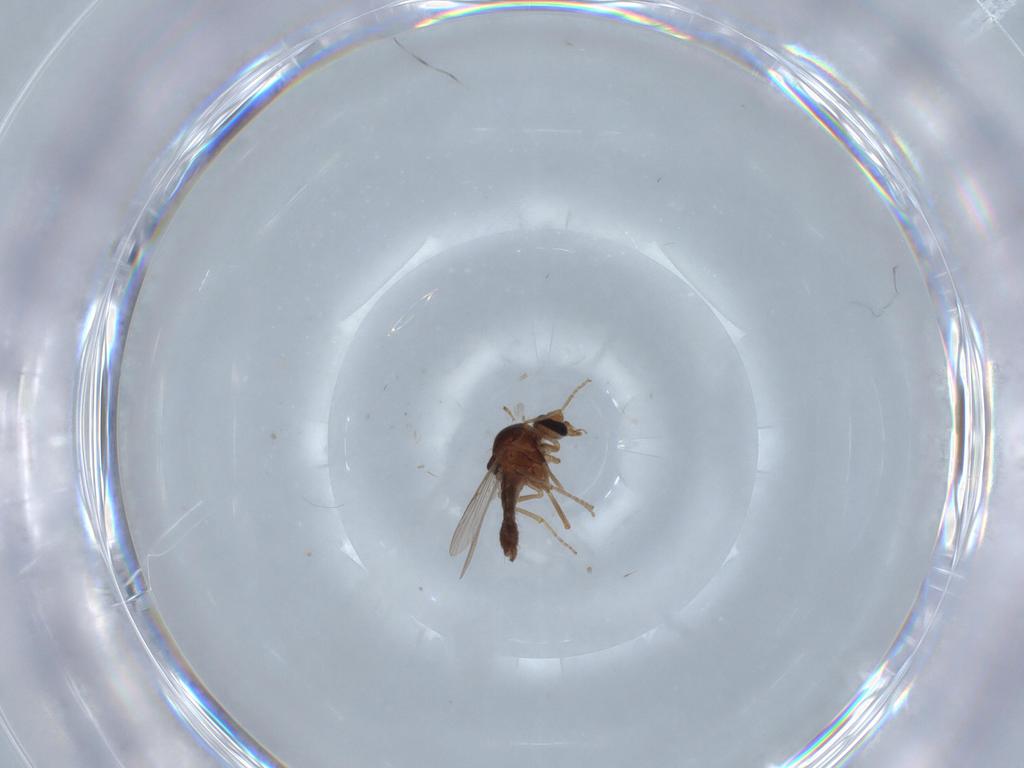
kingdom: Animalia
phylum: Arthropoda
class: Insecta
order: Diptera
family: Ceratopogonidae
